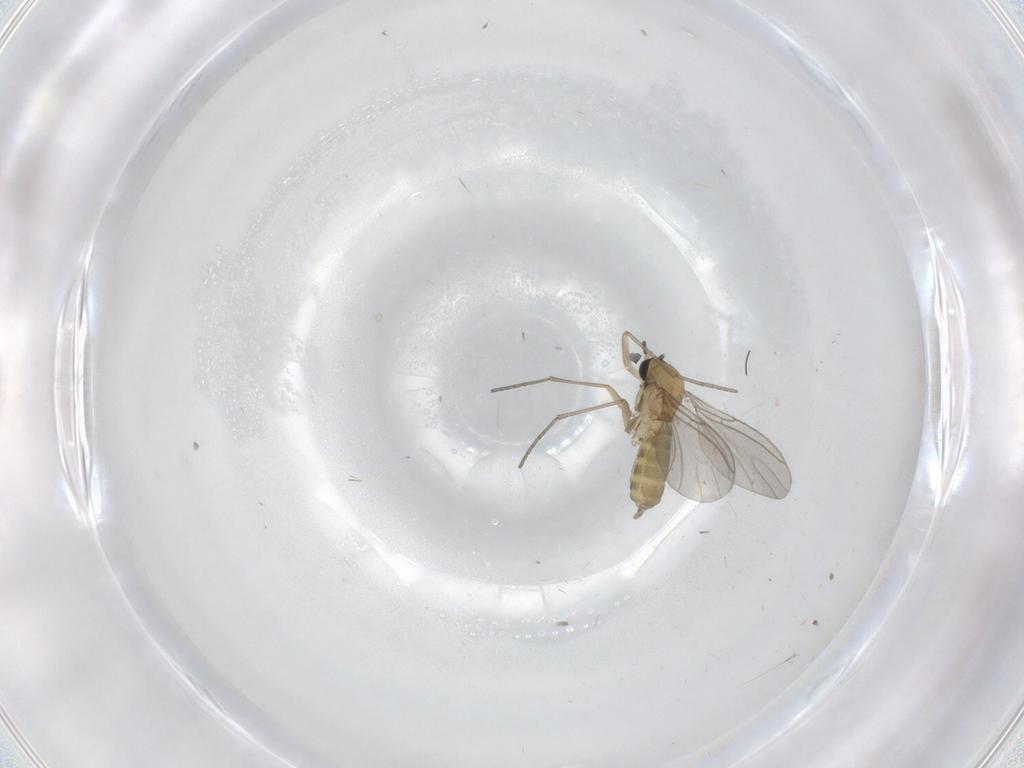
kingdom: Animalia
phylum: Arthropoda
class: Insecta
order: Diptera
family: Sciaridae
